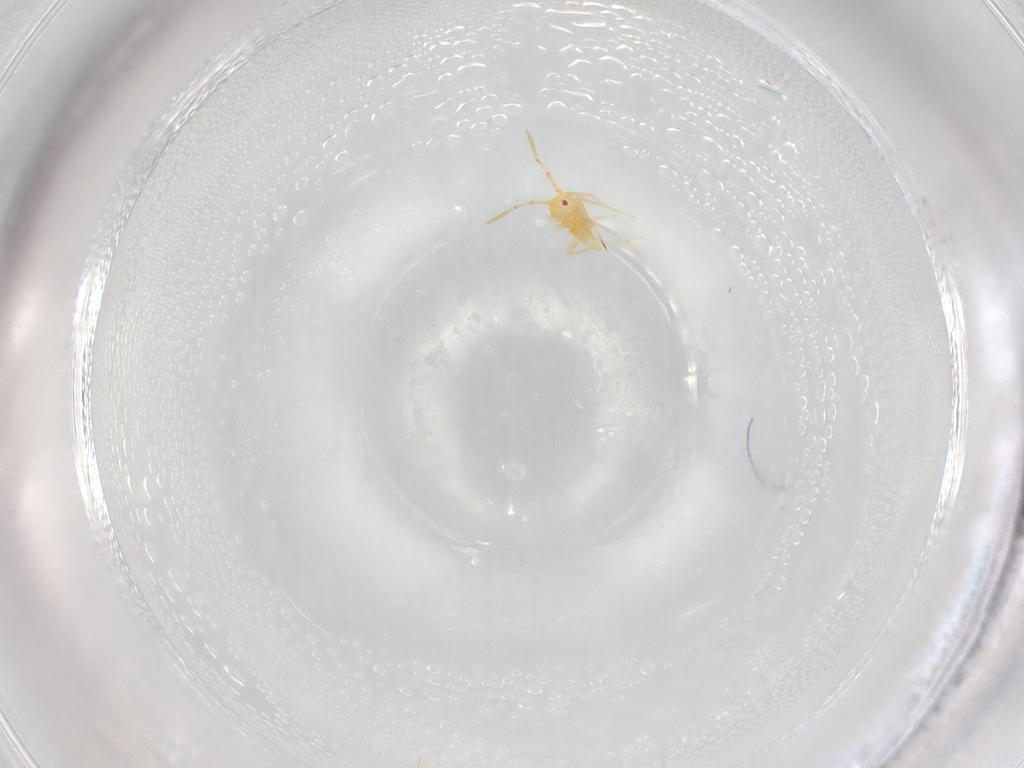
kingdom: Animalia
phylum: Arthropoda
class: Insecta
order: Hemiptera
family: Miridae
